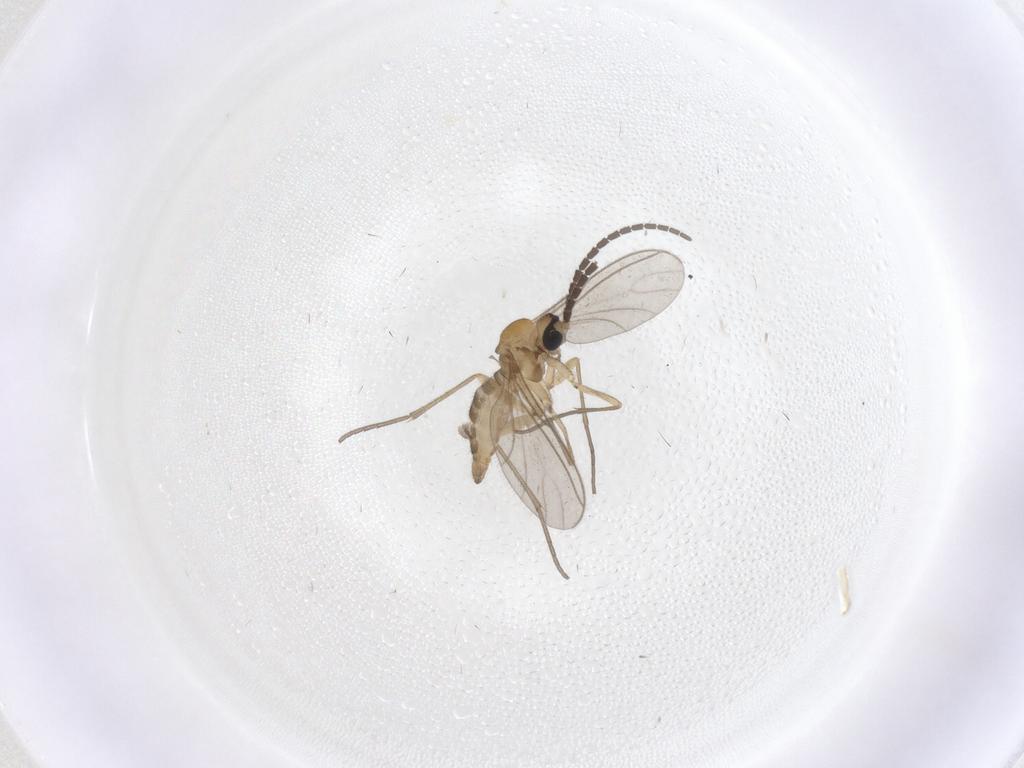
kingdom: Animalia
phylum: Arthropoda
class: Insecta
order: Diptera
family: Sciaridae
